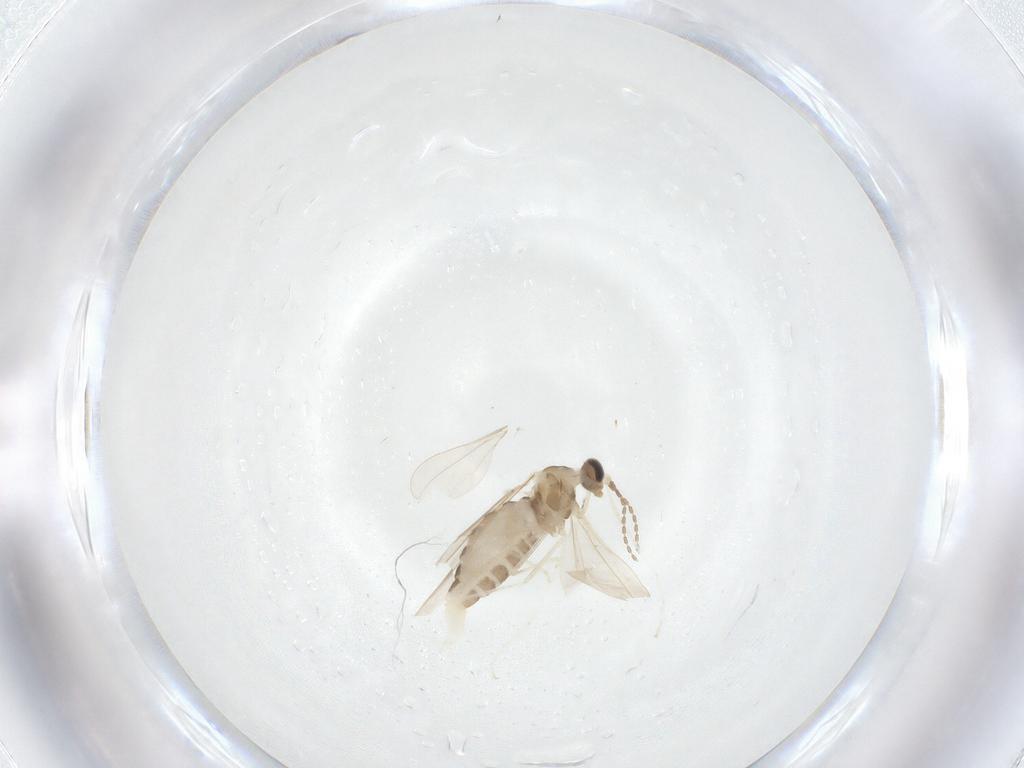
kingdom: Animalia
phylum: Arthropoda
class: Insecta
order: Diptera
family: Cecidomyiidae
